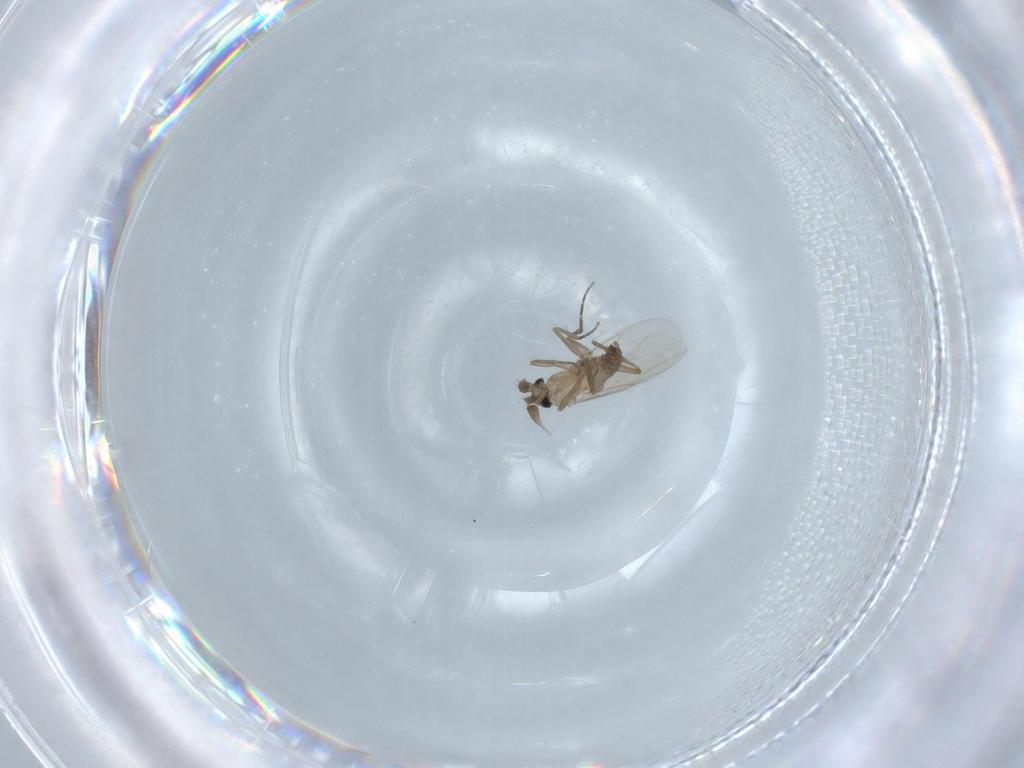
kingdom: Animalia
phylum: Arthropoda
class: Insecta
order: Diptera
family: Phoridae
